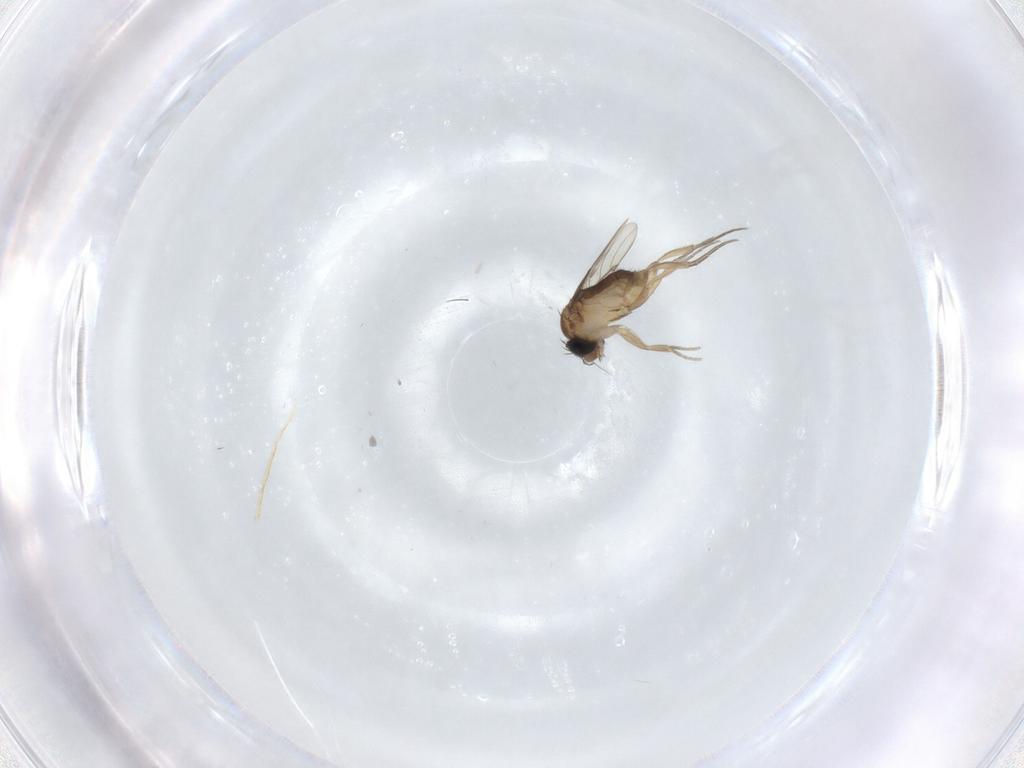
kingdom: Animalia
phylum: Arthropoda
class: Insecta
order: Diptera
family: Phoridae
